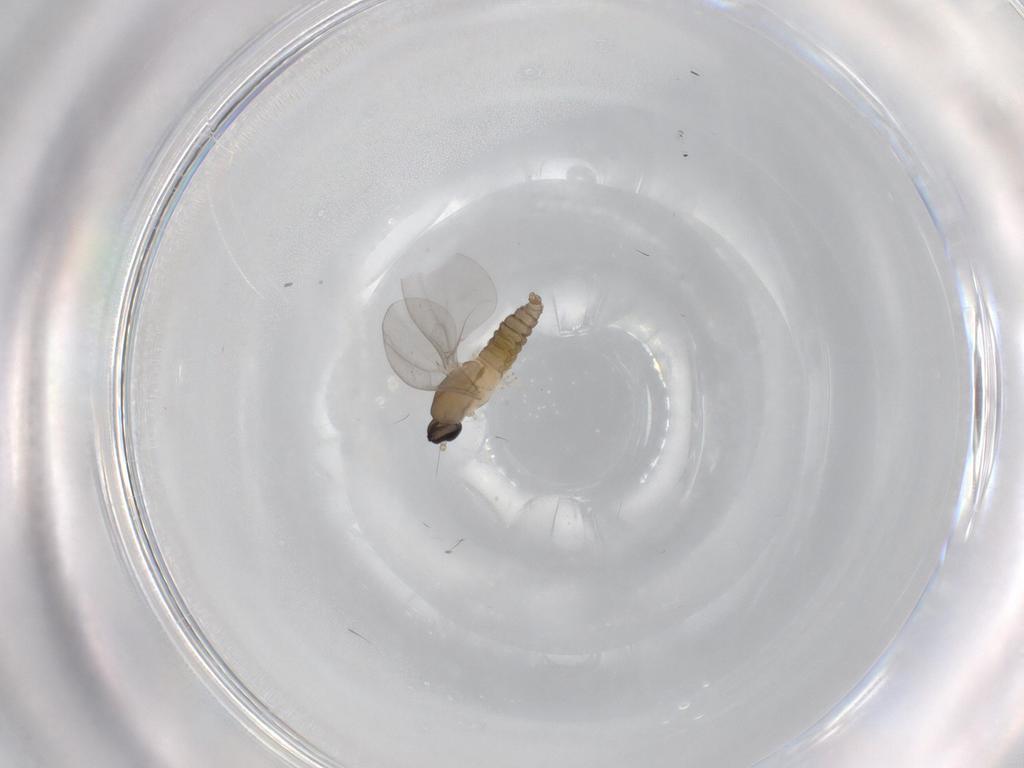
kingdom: Animalia
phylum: Arthropoda
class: Insecta
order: Diptera
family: Cecidomyiidae
